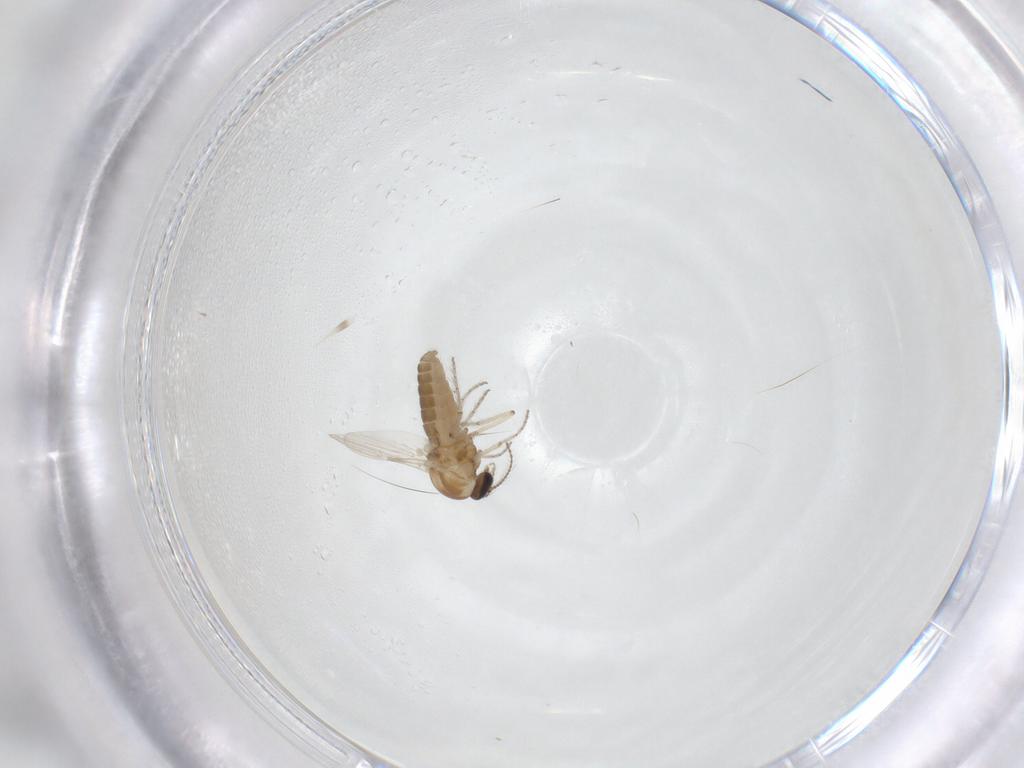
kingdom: Animalia
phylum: Arthropoda
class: Insecta
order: Diptera
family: Ceratopogonidae
